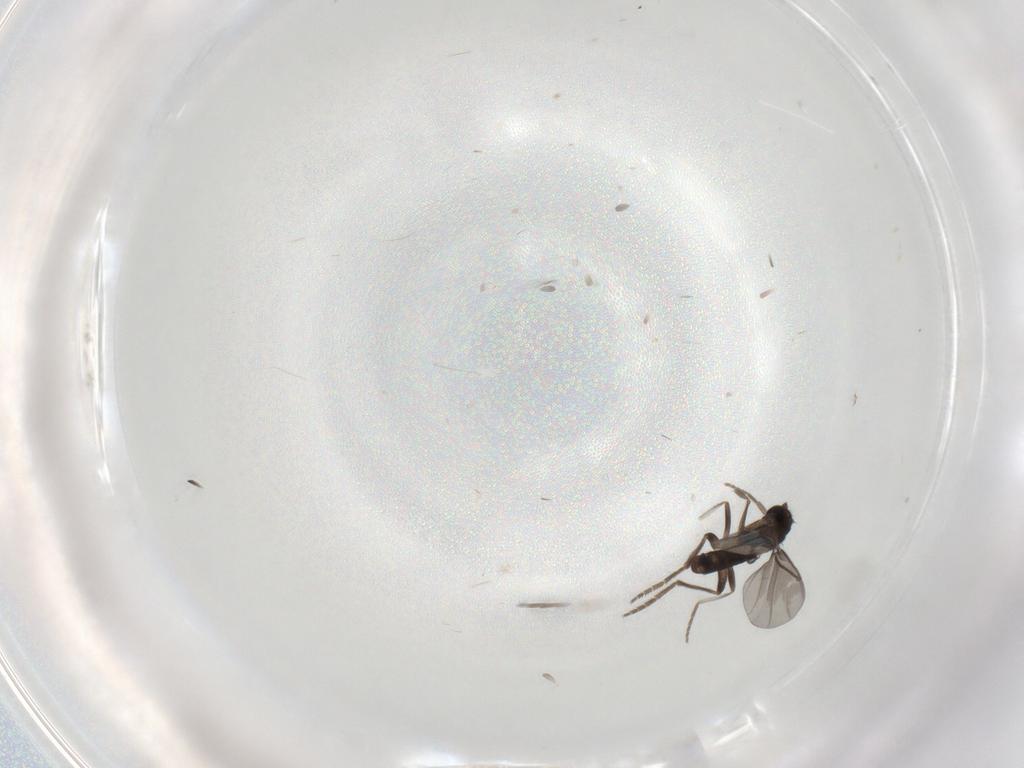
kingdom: Animalia
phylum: Arthropoda
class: Insecta
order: Diptera
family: Phoridae
